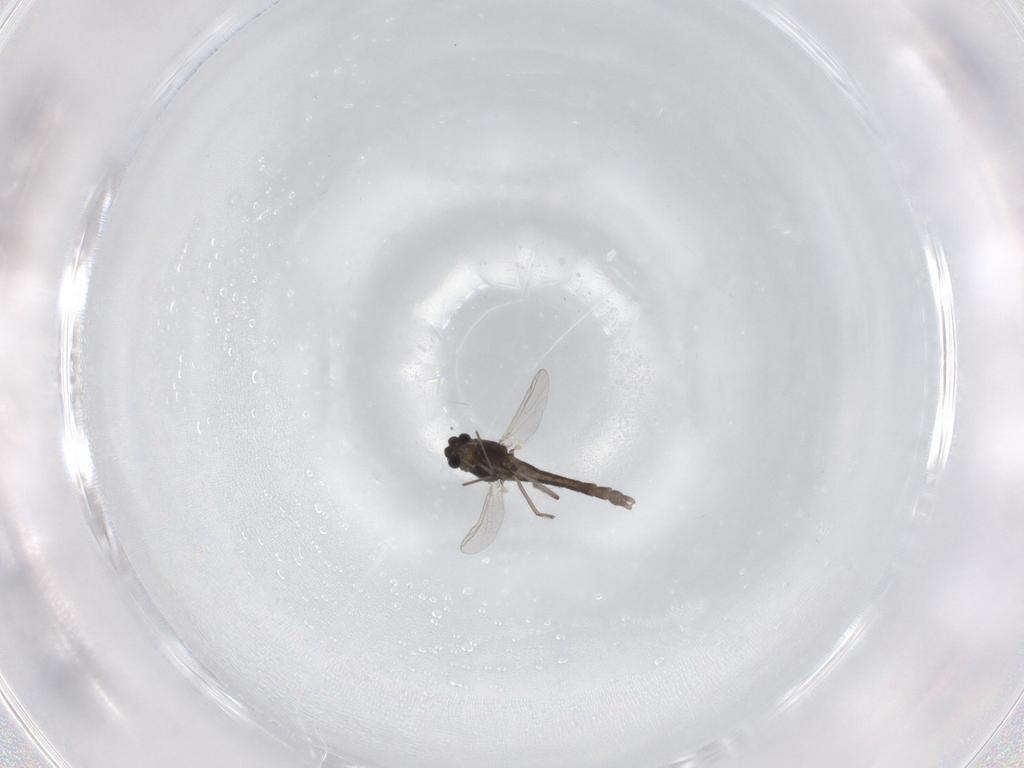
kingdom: Animalia
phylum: Arthropoda
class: Insecta
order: Diptera
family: Chironomidae
